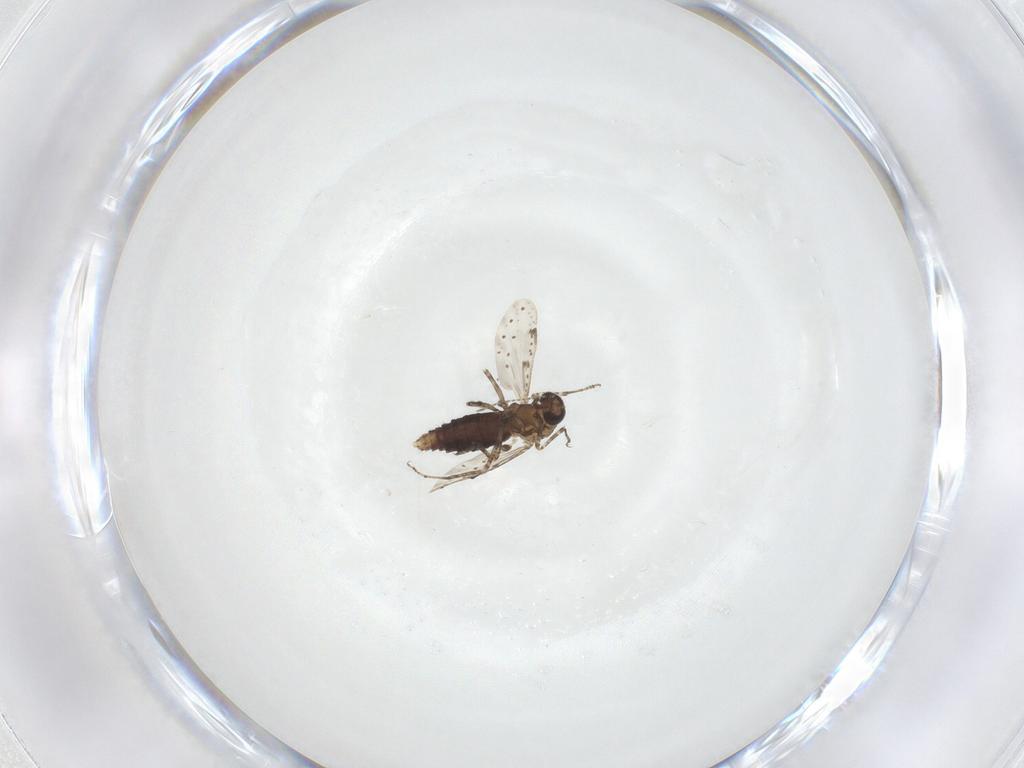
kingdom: Animalia
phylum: Arthropoda
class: Insecta
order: Diptera
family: Ceratopogonidae
